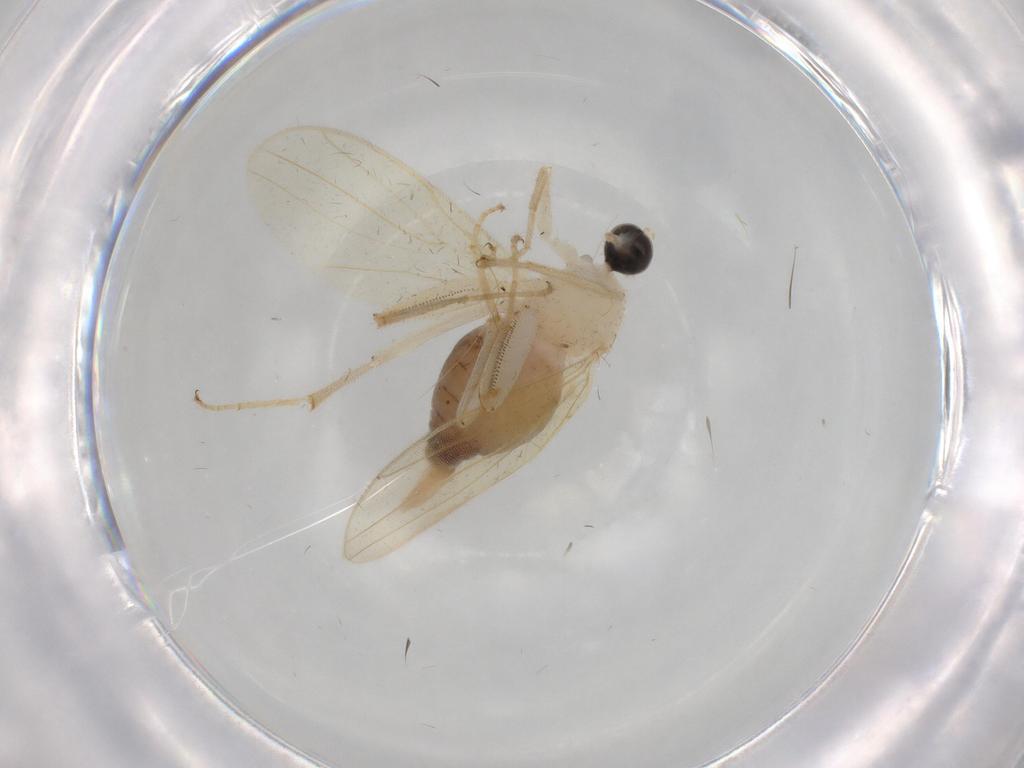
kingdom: Animalia
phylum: Arthropoda
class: Insecta
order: Diptera
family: Hybotidae
